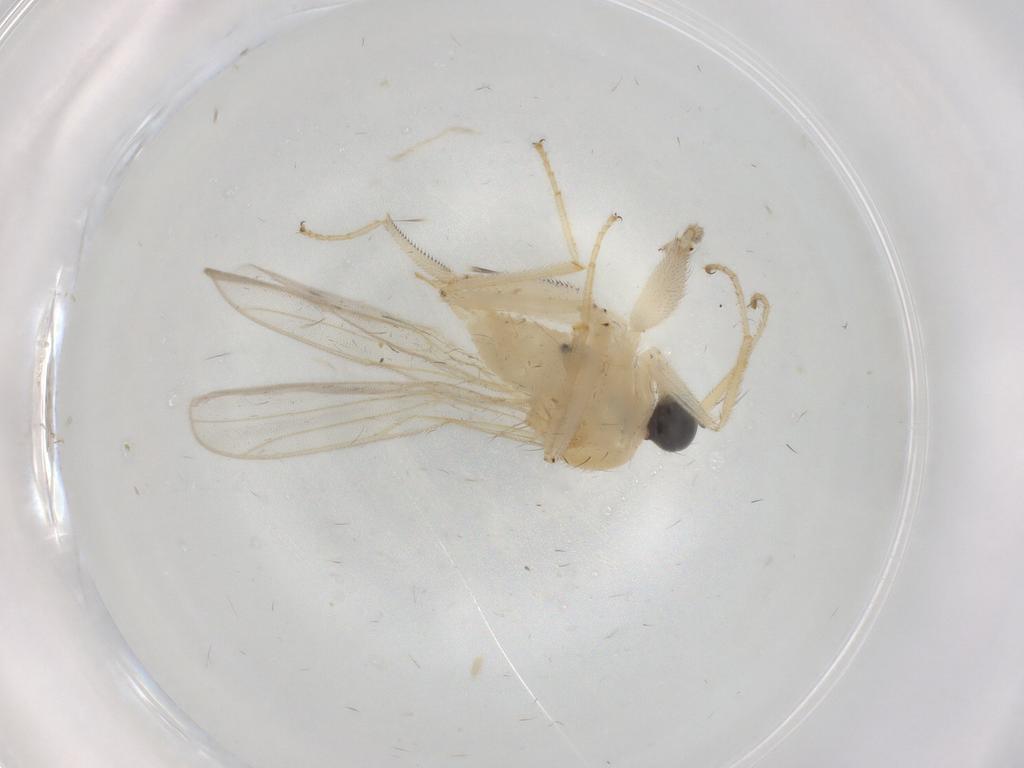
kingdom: Animalia
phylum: Arthropoda
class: Insecta
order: Diptera
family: Hybotidae
